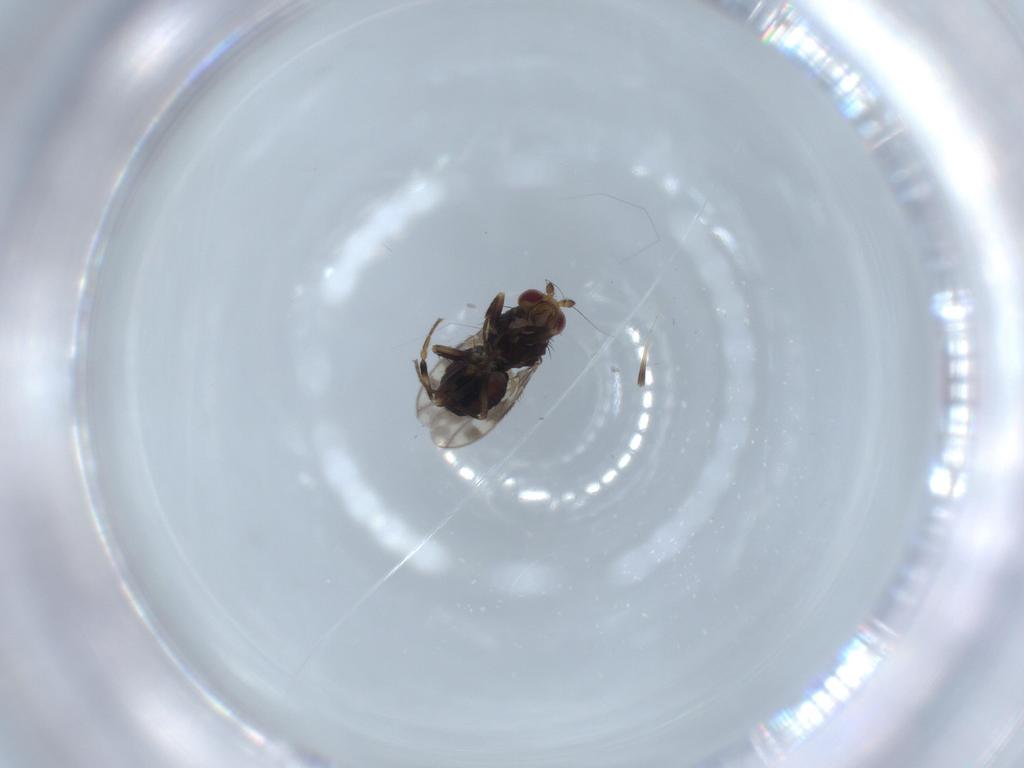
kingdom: Animalia
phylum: Arthropoda
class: Insecta
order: Diptera
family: Sphaeroceridae
